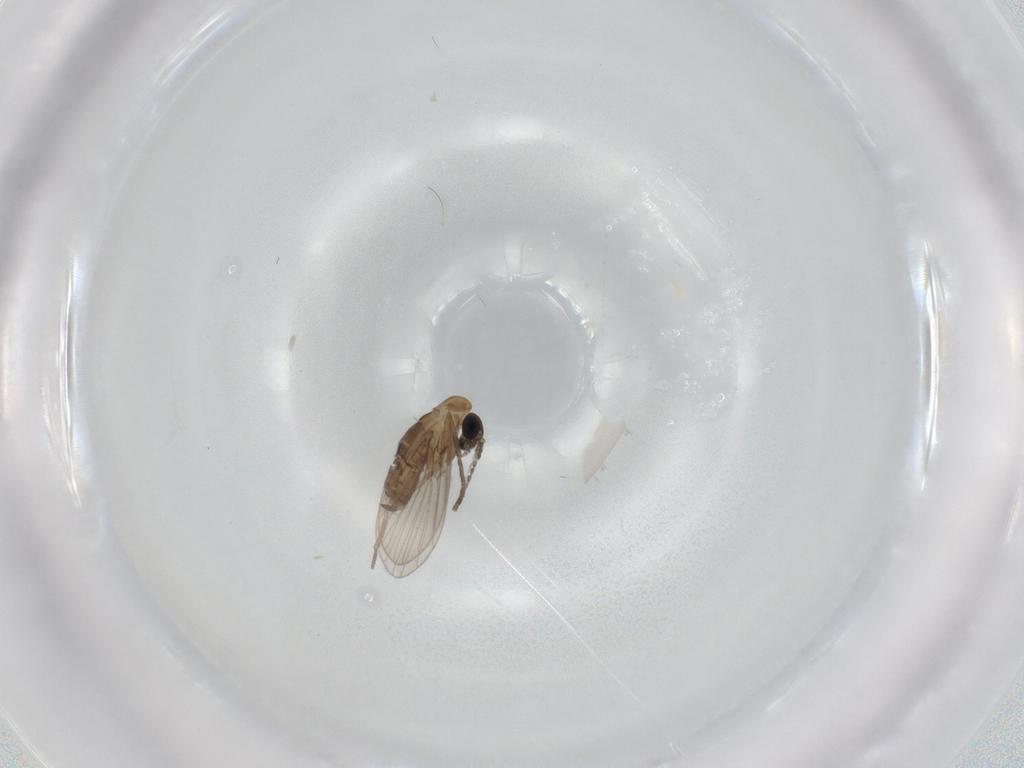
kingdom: Animalia
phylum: Arthropoda
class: Insecta
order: Diptera
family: Psychodidae
